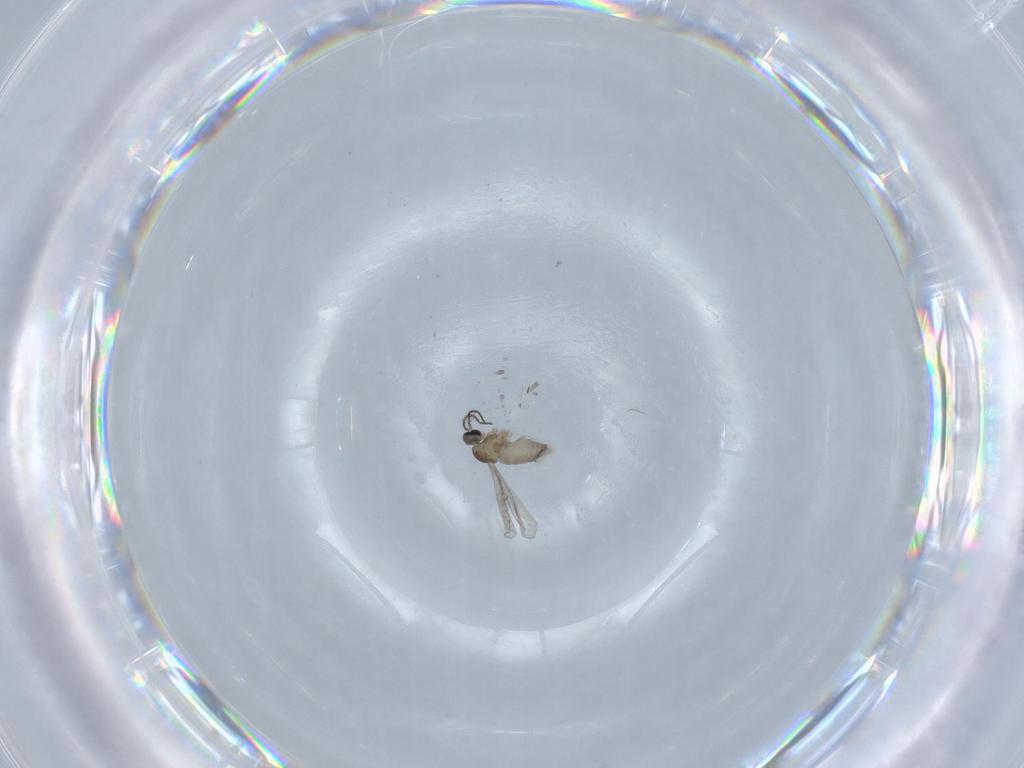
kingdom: Animalia
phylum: Arthropoda
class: Insecta
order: Diptera
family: Cecidomyiidae
